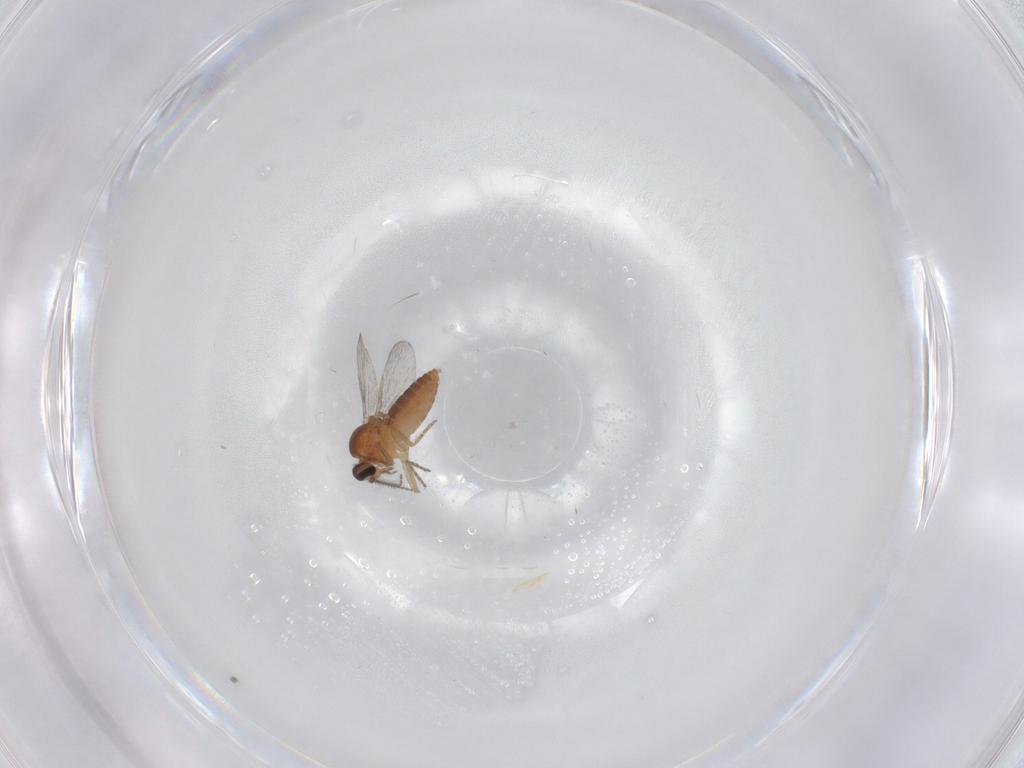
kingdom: Animalia
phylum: Arthropoda
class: Insecta
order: Diptera
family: Ceratopogonidae
